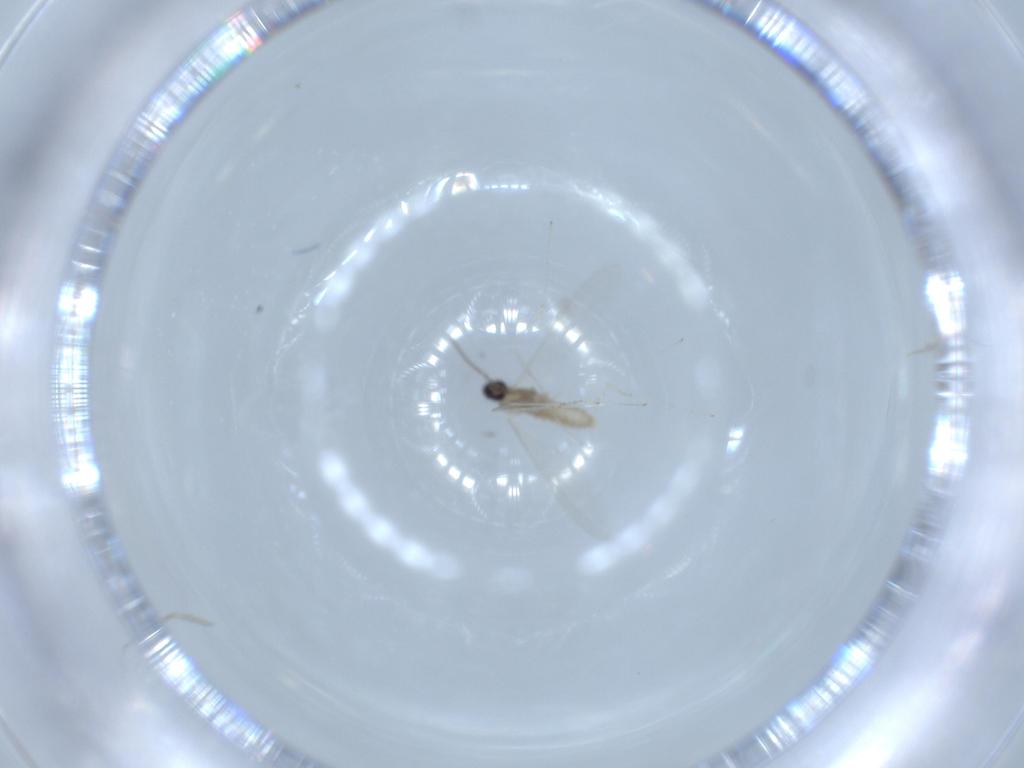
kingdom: Animalia
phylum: Arthropoda
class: Insecta
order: Diptera
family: Cecidomyiidae
